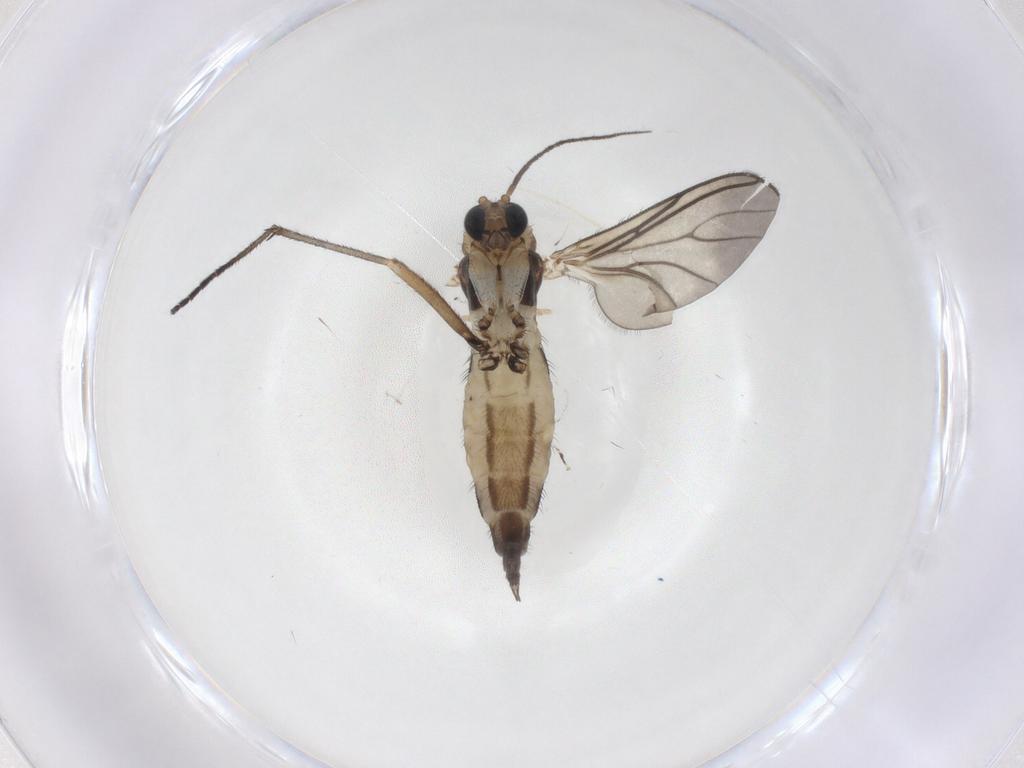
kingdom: Animalia
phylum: Arthropoda
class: Insecta
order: Diptera
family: Sciaridae
